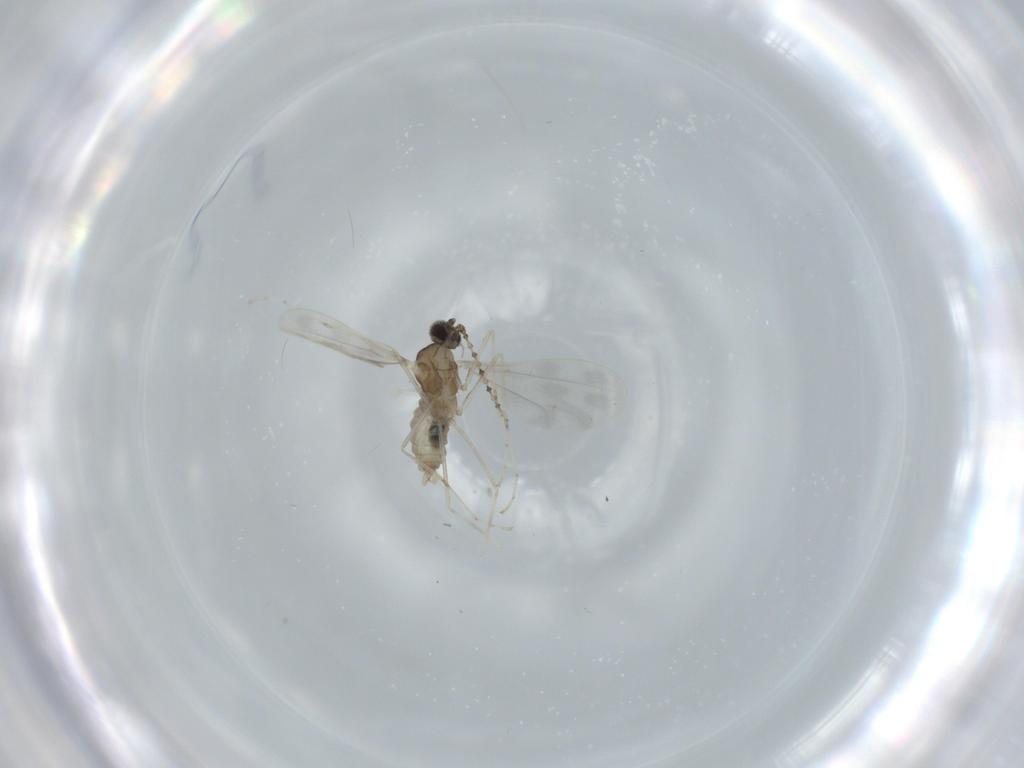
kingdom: Animalia
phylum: Arthropoda
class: Insecta
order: Diptera
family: Cecidomyiidae
